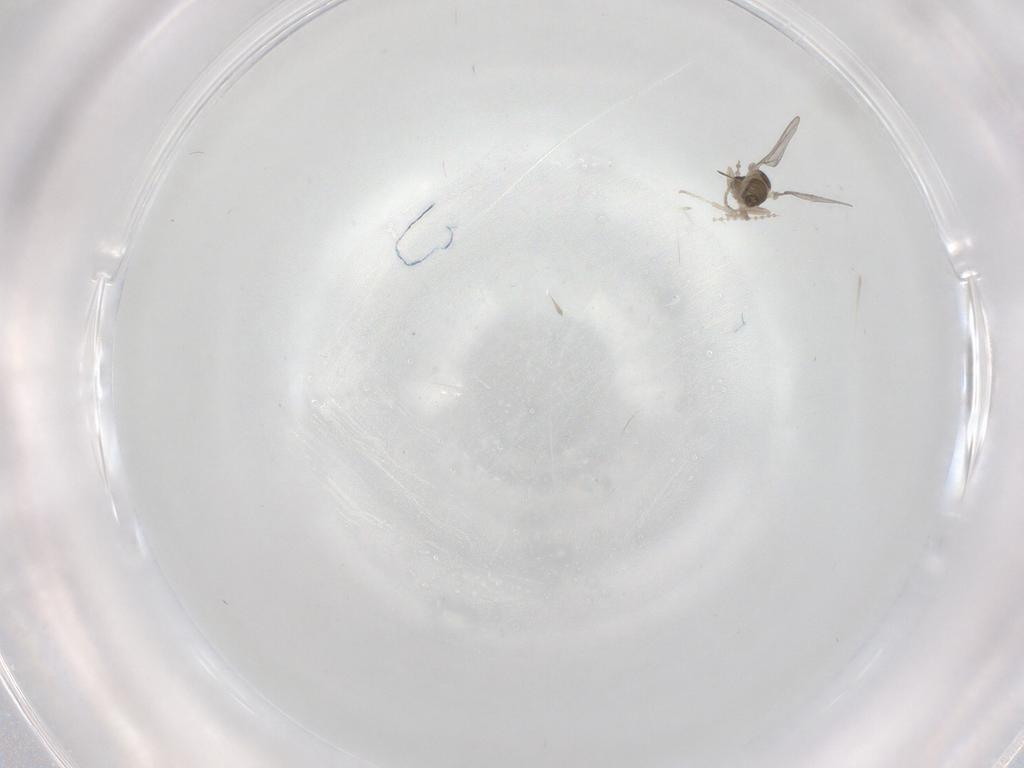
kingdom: Animalia
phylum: Arthropoda
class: Insecta
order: Diptera
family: Cecidomyiidae
